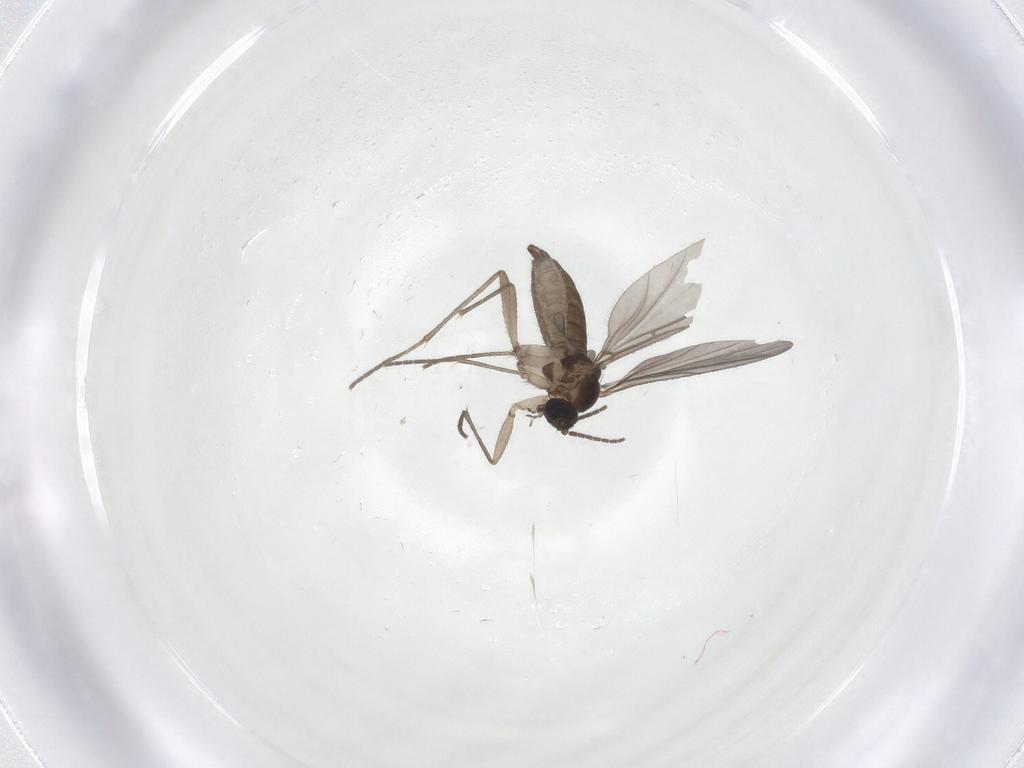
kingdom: Animalia
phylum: Arthropoda
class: Insecta
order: Diptera
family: Sciaridae
